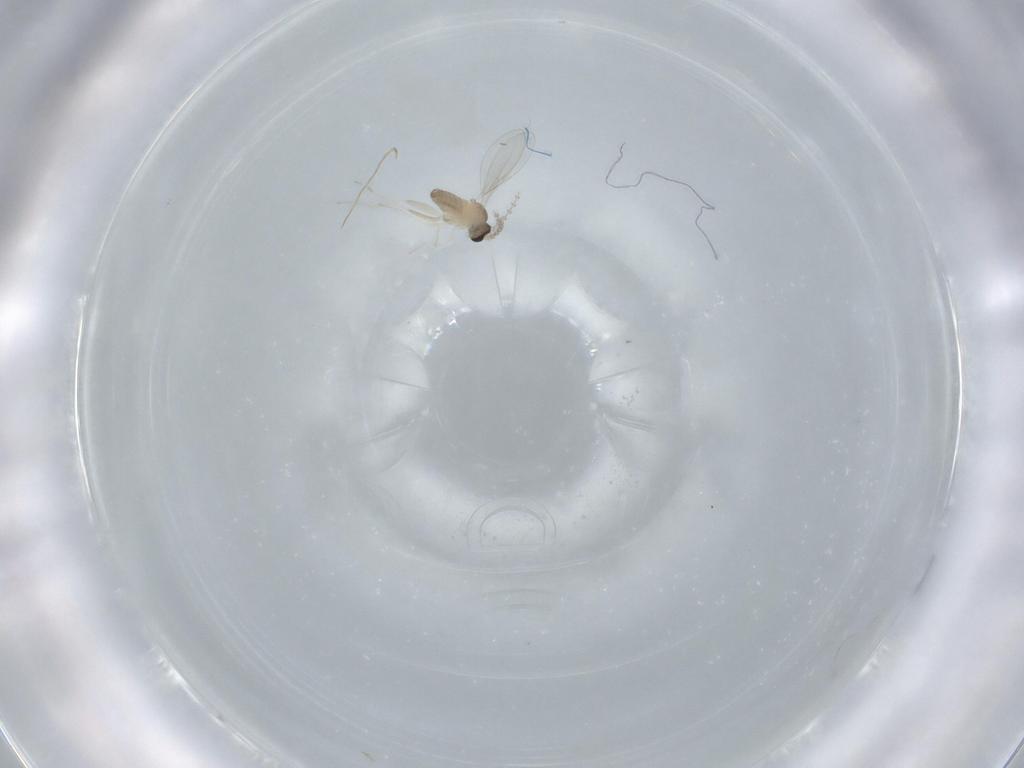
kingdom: Animalia
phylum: Arthropoda
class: Insecta
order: Diptera
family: Cecidomyiidae
